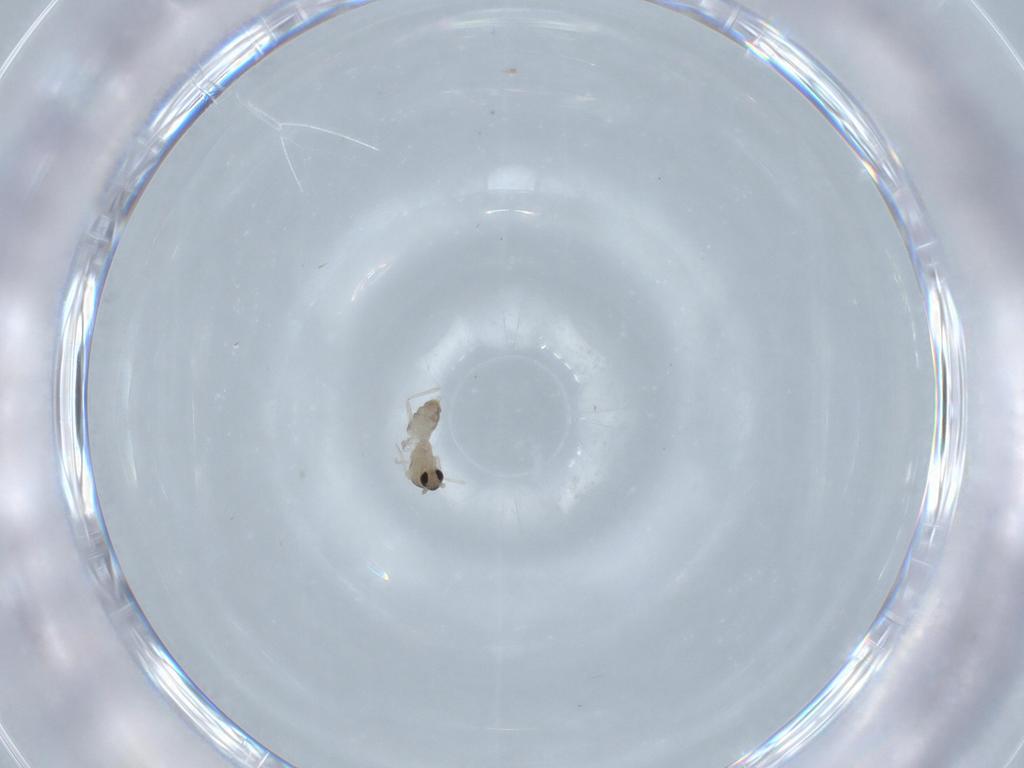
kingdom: Animalia
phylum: Arthropoda
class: Insecta
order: Diptera
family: Cecidomyiidae
